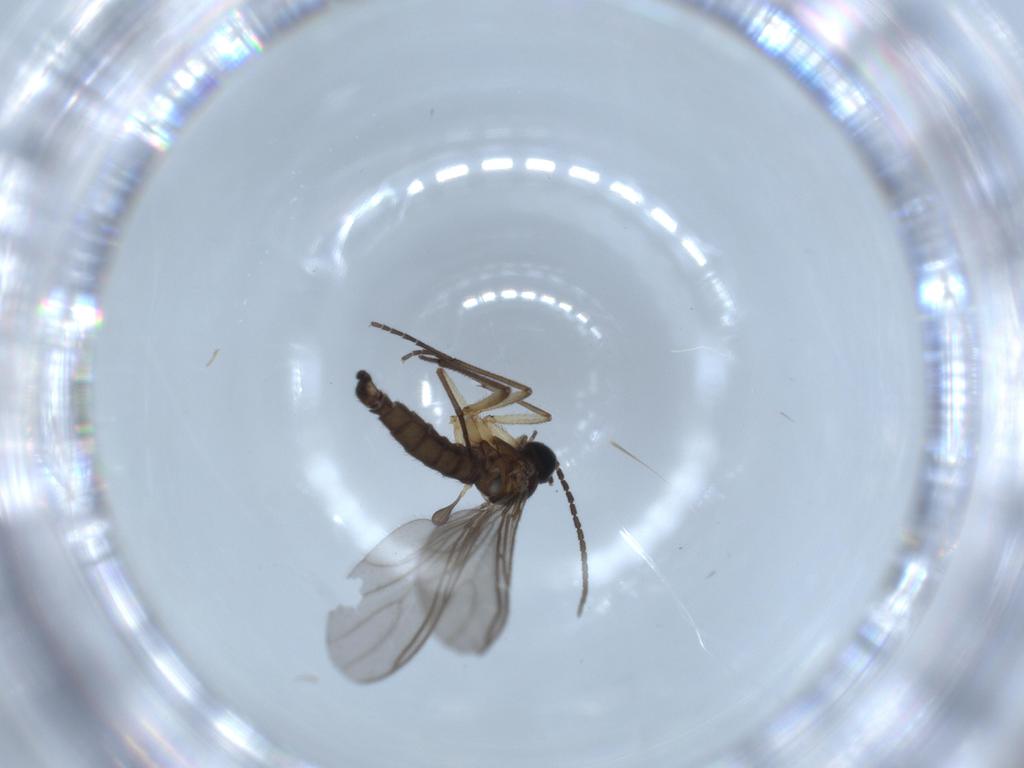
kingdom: Animalia
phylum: Arthropoda
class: Insecta
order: Diptera
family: Sciaridae
